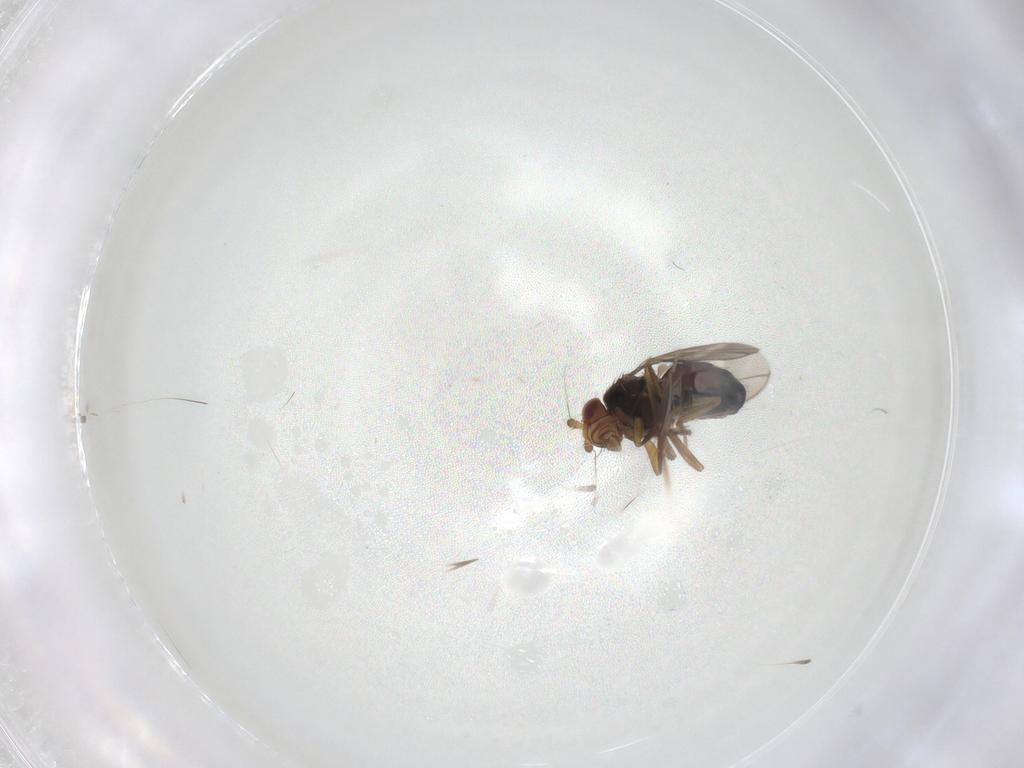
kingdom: Animalia
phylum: Arthropoda
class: Insecta
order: Diptera
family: Sphaeroceridae
